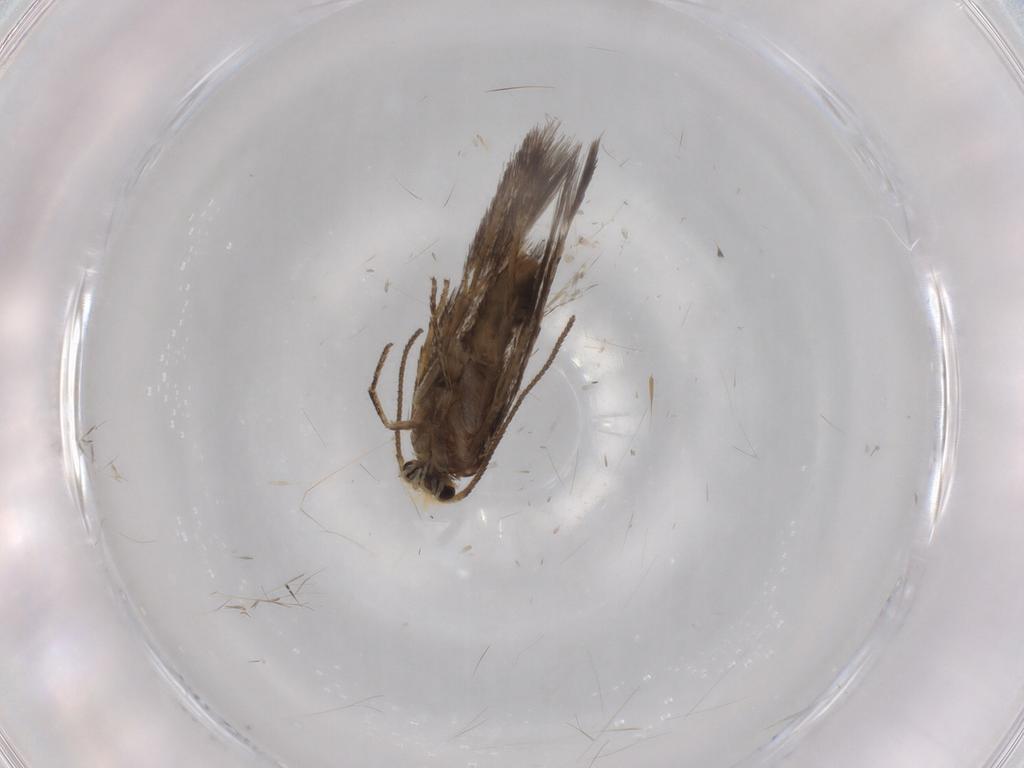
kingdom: Animalia
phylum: Arthropoda
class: Insecta
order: Lepidoptera
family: Nepticulidae
